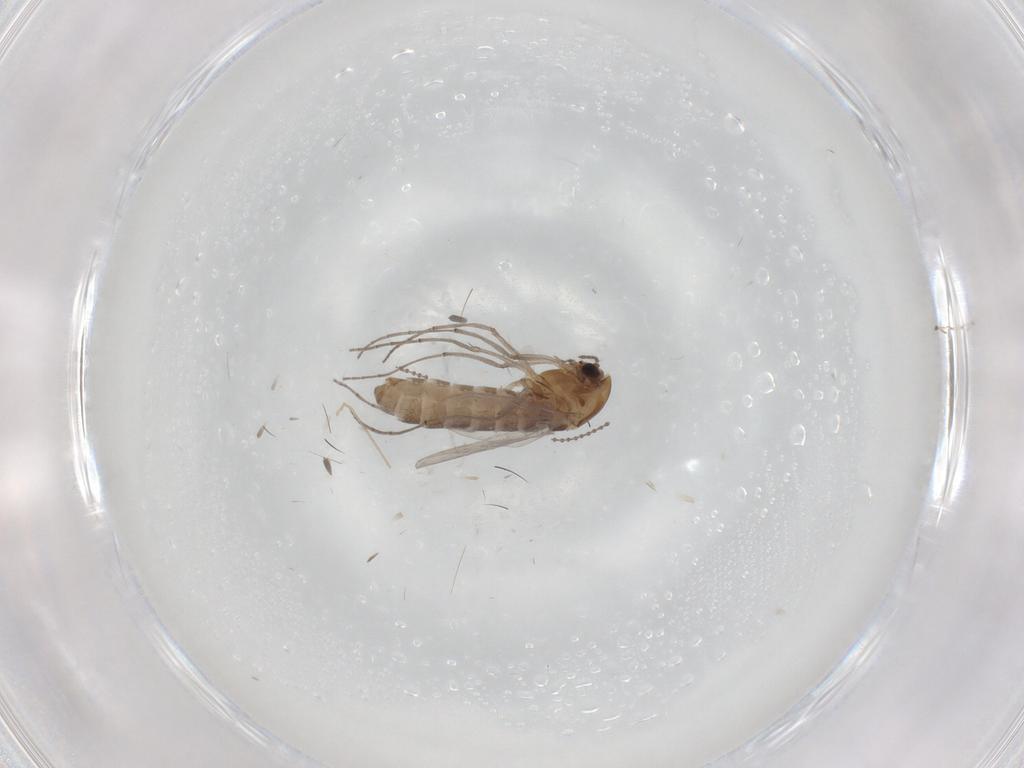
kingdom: Animalia
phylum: Arthropoda
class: Insecta
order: Diptera
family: Chironomidae
